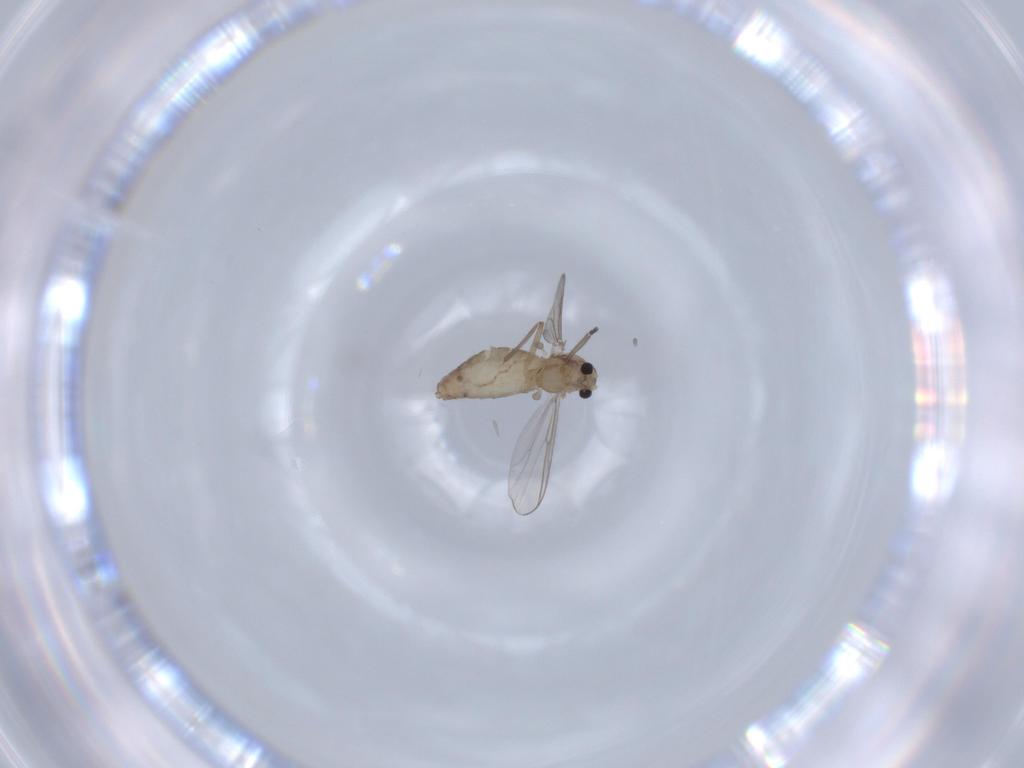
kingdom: Animalia
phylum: Arthropoda
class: Insecta
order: Diptera
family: Chironomidae
